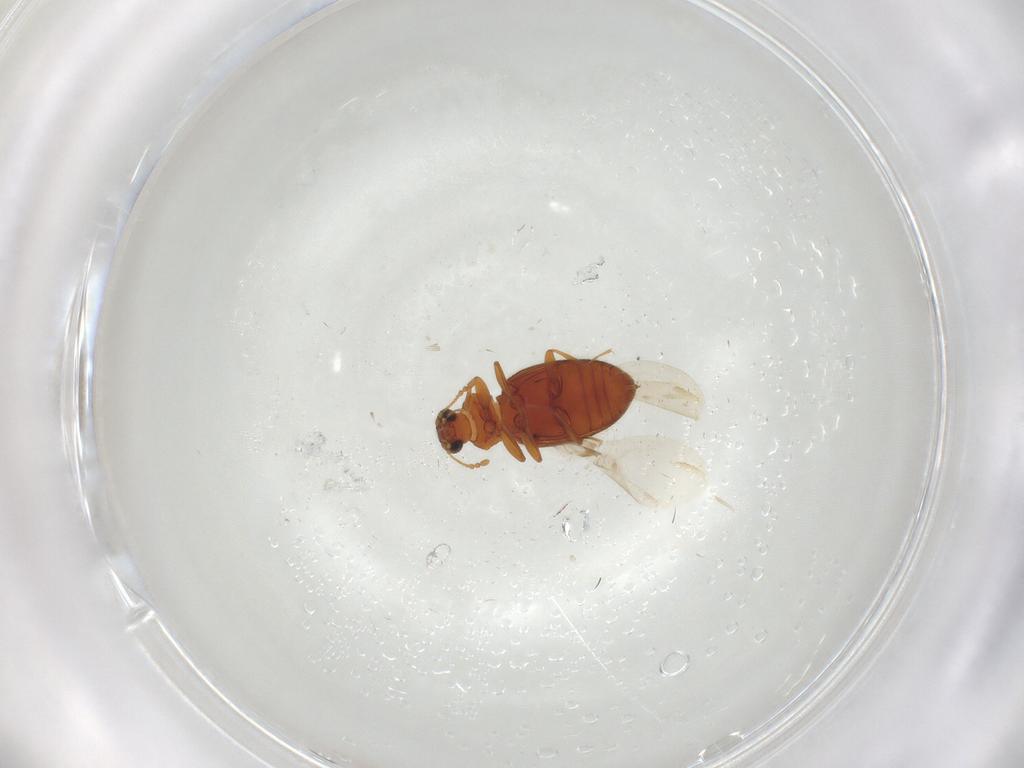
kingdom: Animalia
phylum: Arthropoda
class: Insecta
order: Coleoptera
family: Latridiidae
